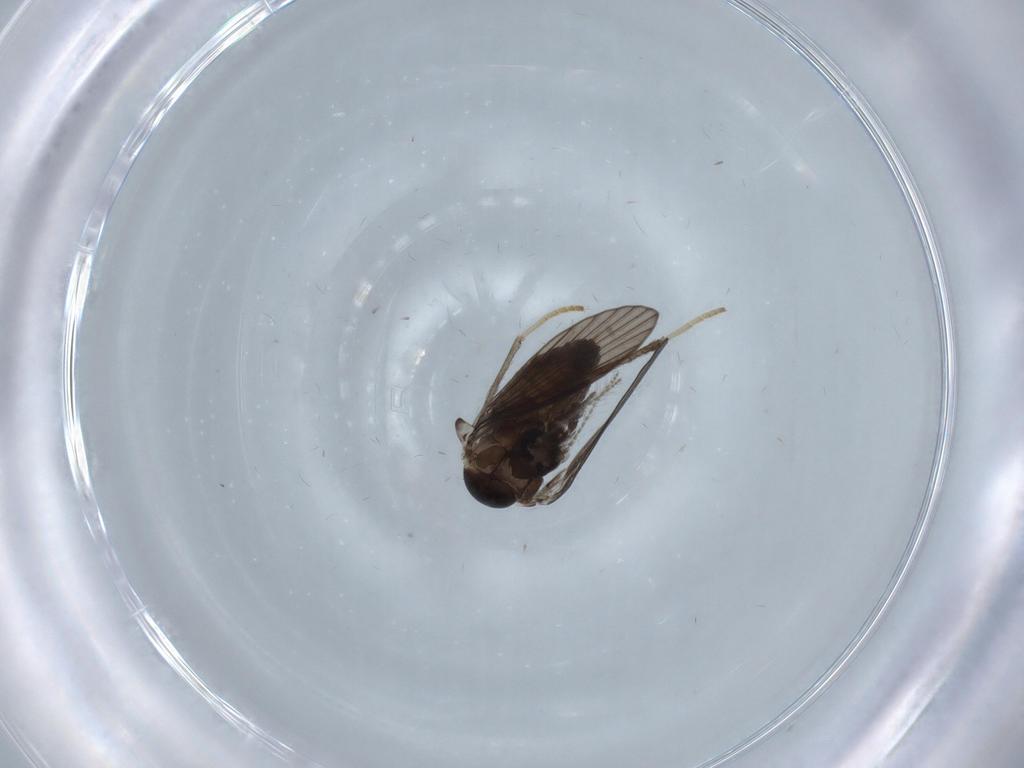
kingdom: Animalia
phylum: Arthropoda
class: Insecta
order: Diptera
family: Psychodidae
